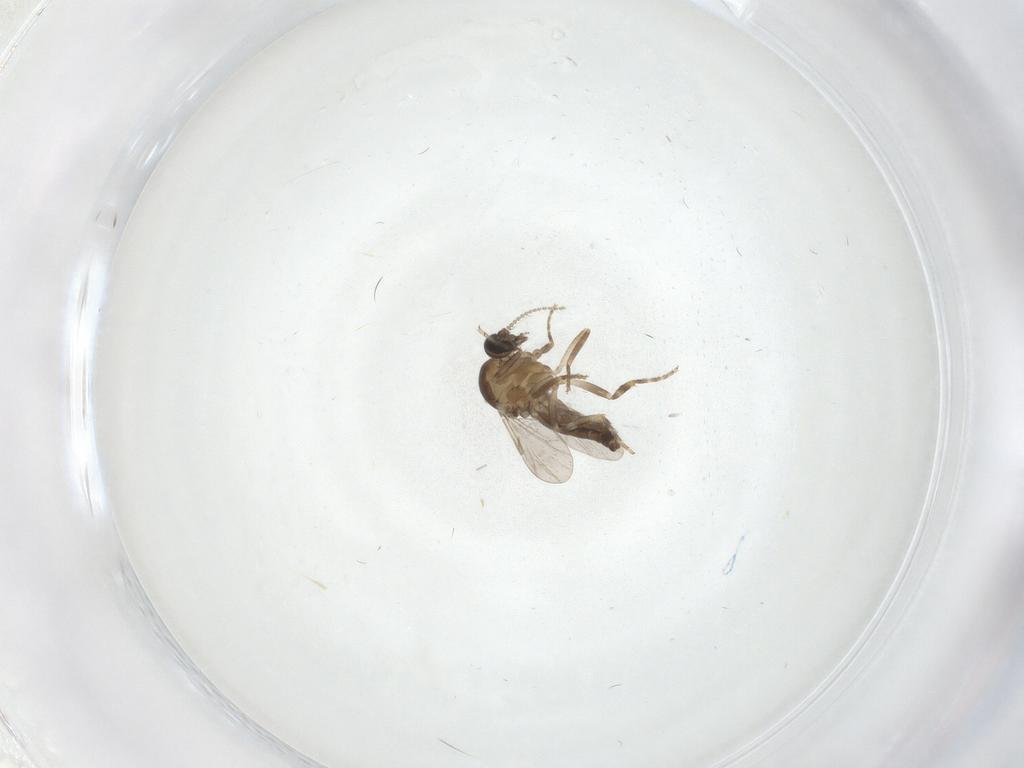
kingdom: Animalia
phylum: Arthropoda
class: Insecta
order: Diptera
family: Ceratopogonidae
